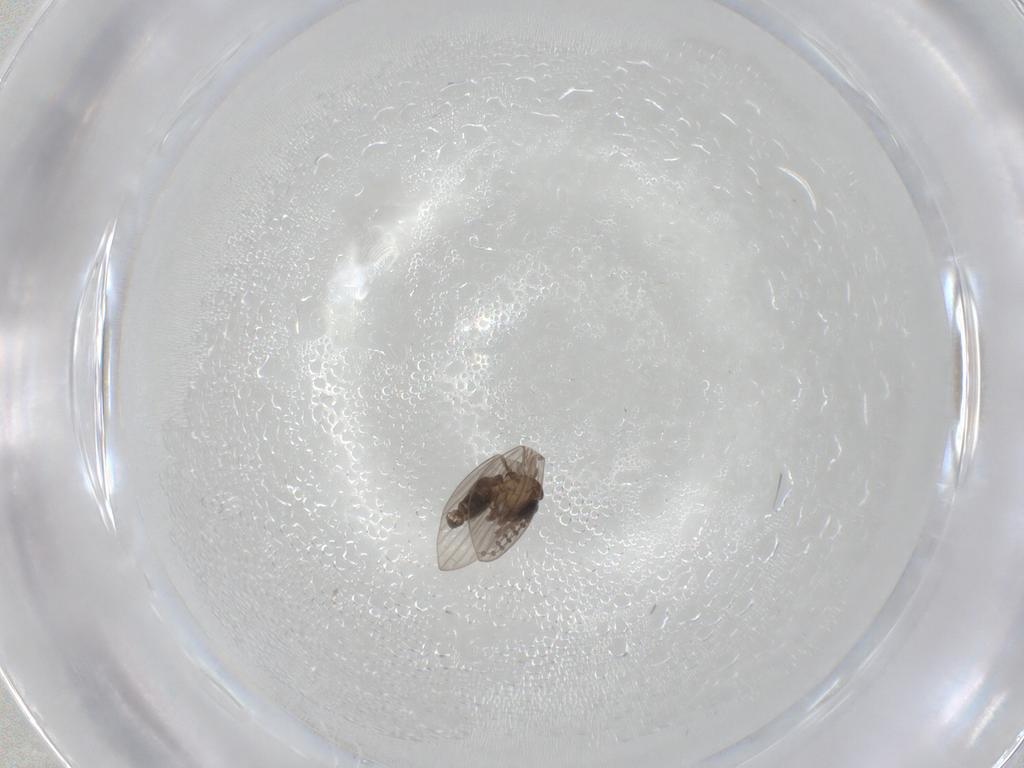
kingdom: Animalia
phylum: Arthropoda
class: Insecta
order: Diptera
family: Psychodidae
